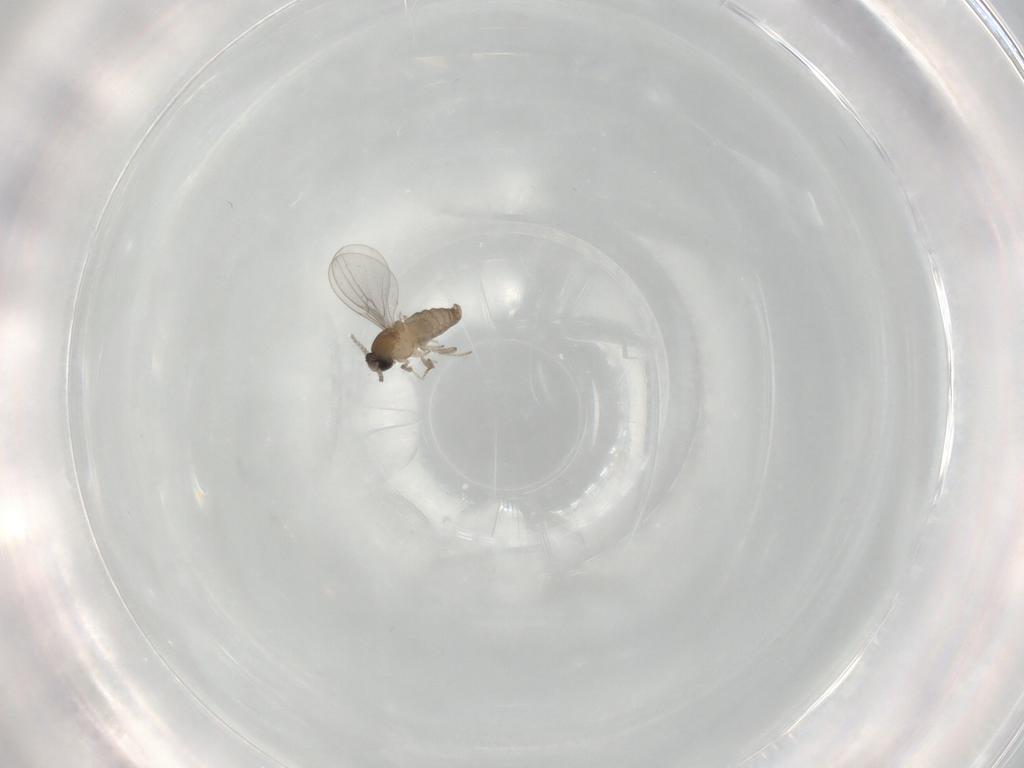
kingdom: Animalia
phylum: Arthropoda
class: Insecta
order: Diptera
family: Cecidomyiidae
